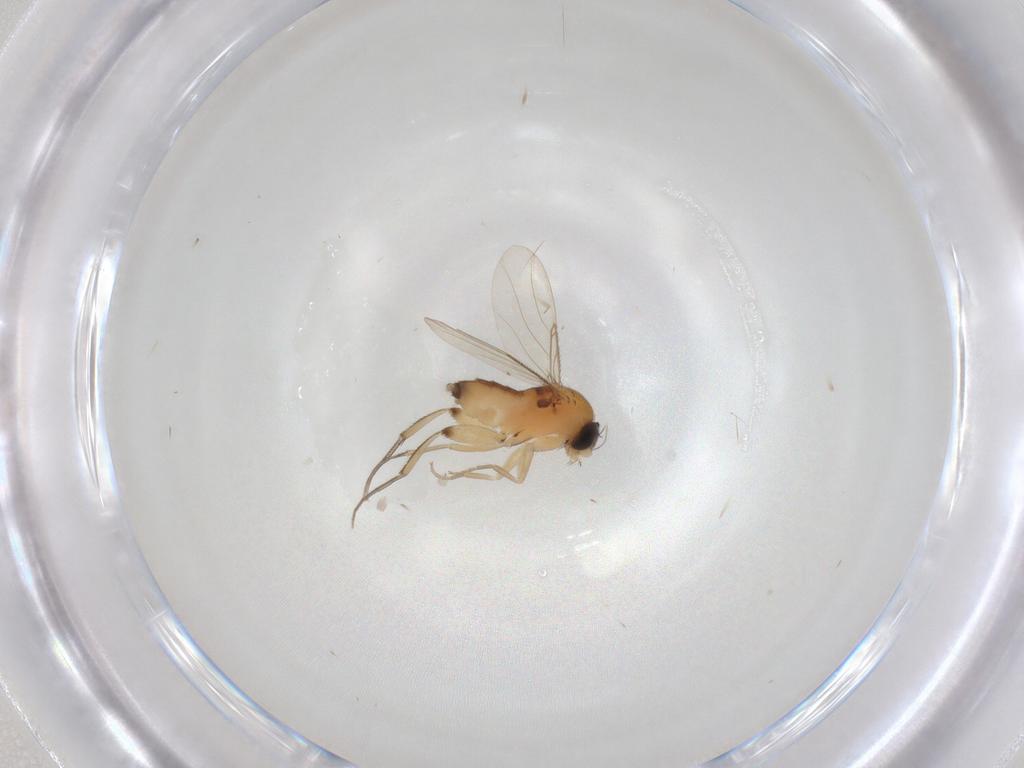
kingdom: Animalia
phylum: Arthropoda
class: Insecta
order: Diptera
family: Phoridae
